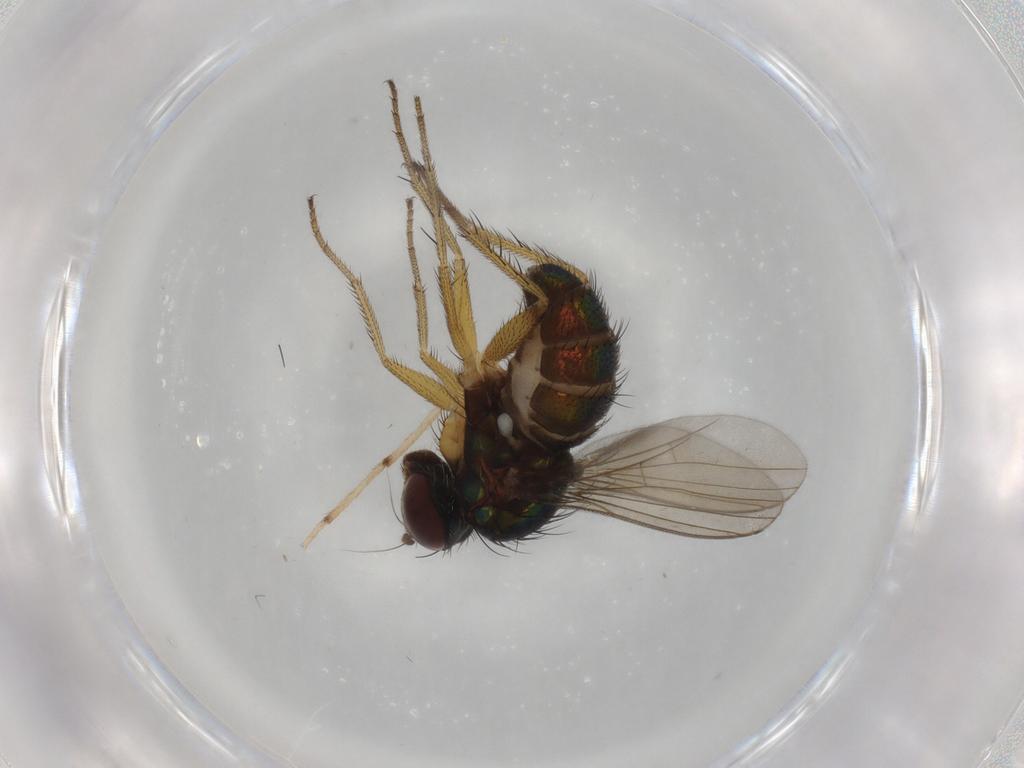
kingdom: Animalia
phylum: Arthropoda
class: Insecta
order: Diptera
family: Dolichopodidae
